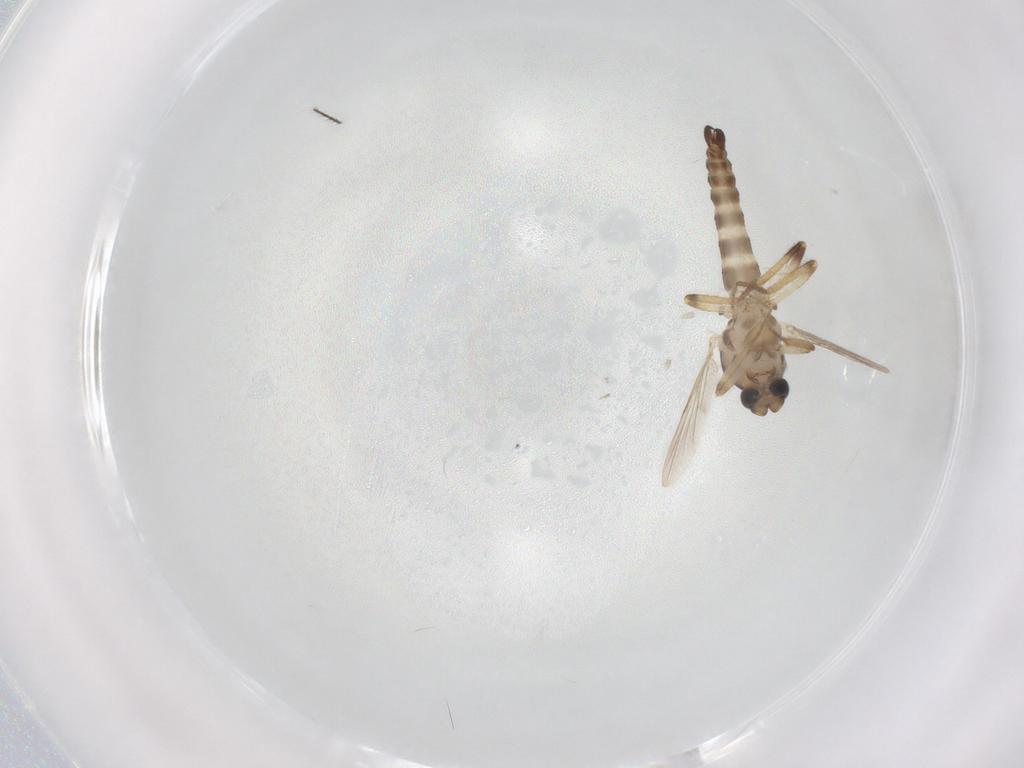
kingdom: Animalia
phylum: Arthropoda
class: Insecta
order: Diptera
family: Ceratopogonidae
